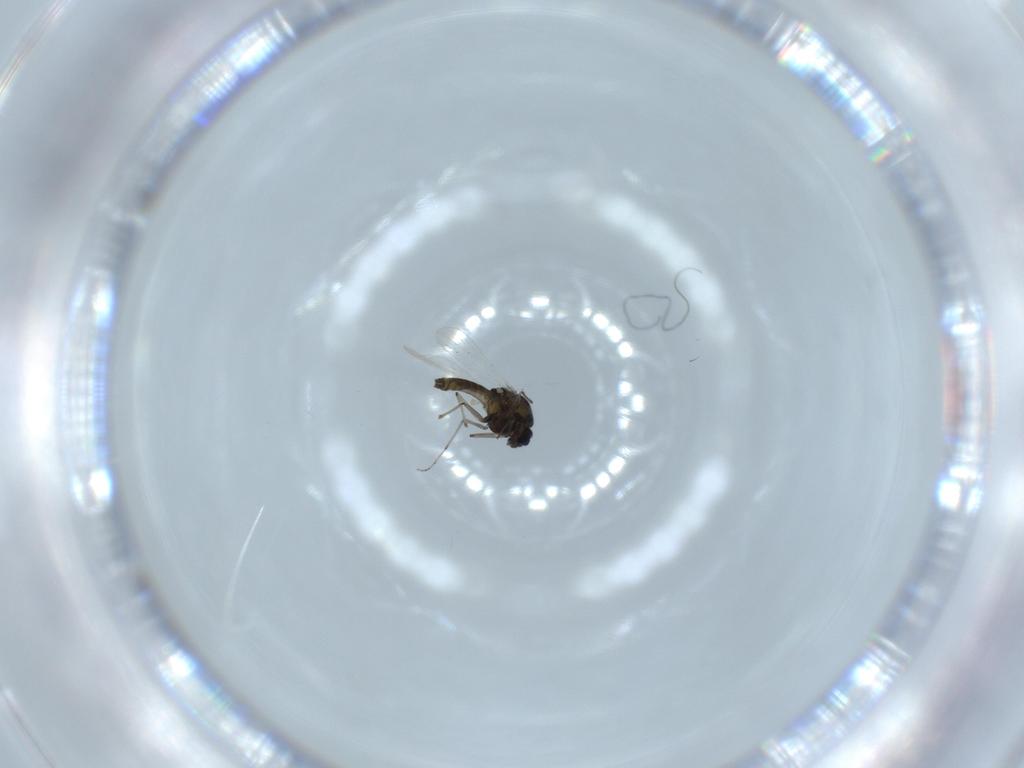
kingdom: Animalia
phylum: Arthropoda
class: Insecta
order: Diptera
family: Chironomidae
